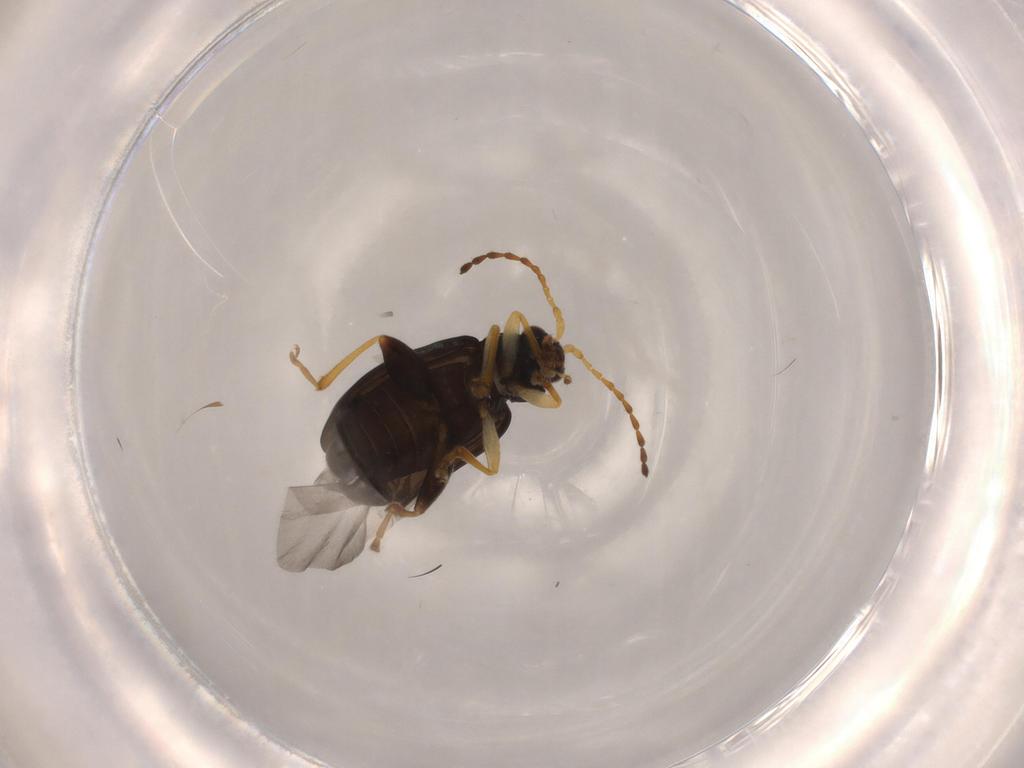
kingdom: Animalia
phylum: Arthropoda
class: Insecta
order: Coleoptera
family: Chrysomelidae
